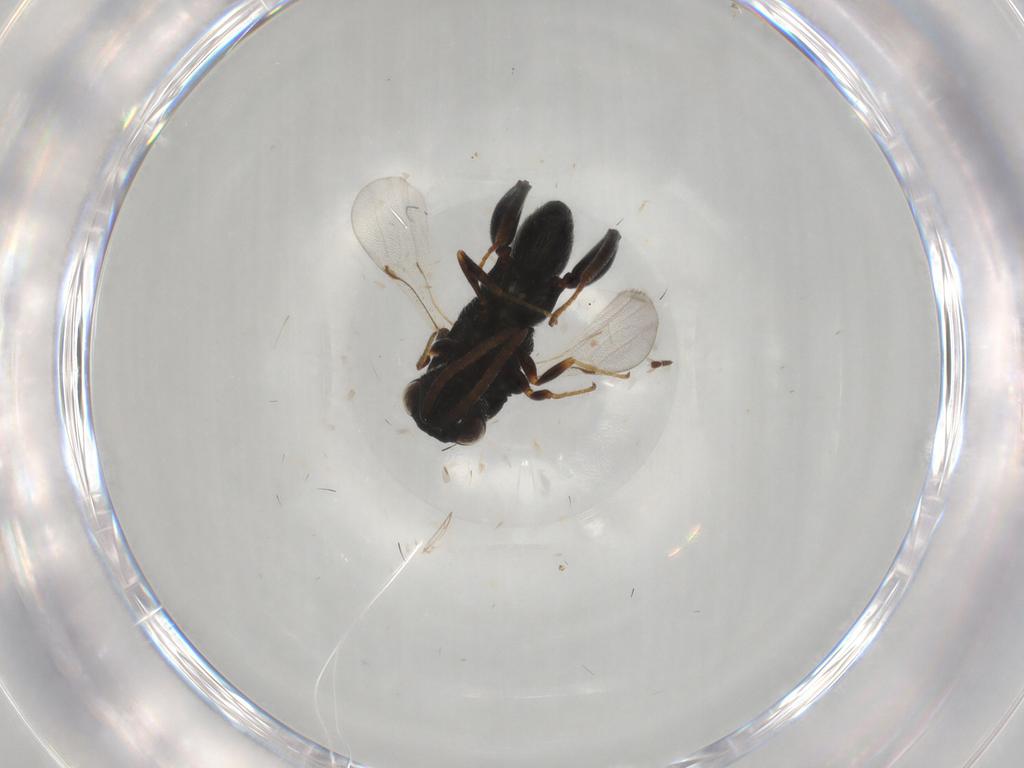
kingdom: Animalia
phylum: Arthropoda
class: Insecta
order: Hymenoptera
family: Chalcididae
